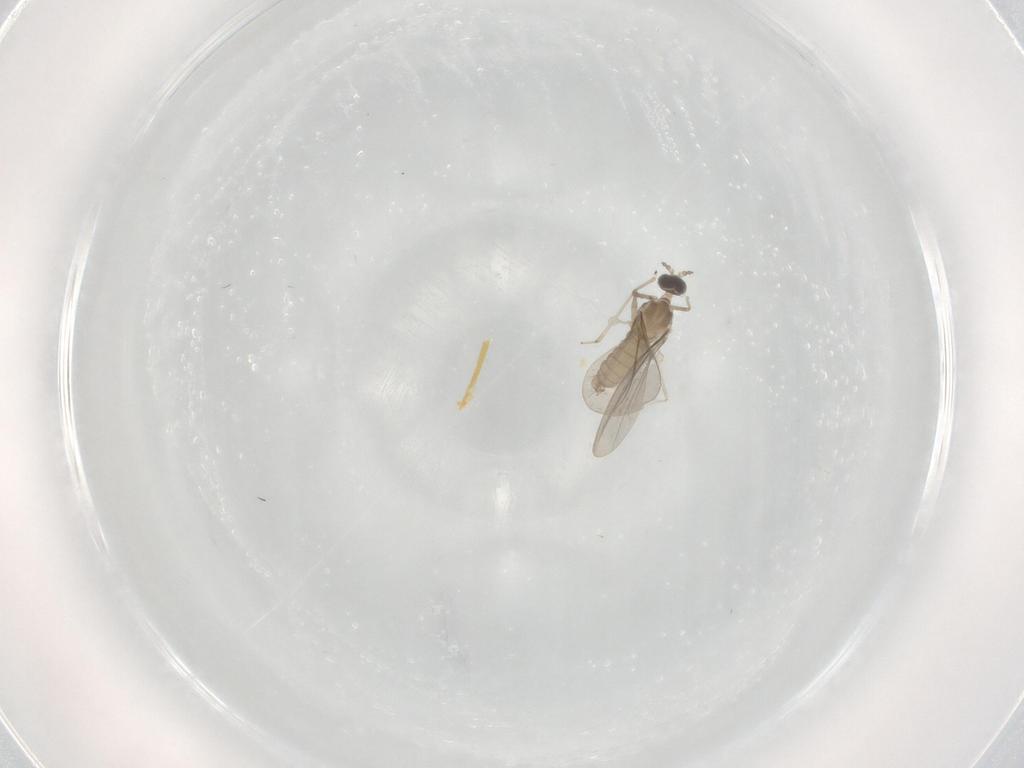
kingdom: Animalia
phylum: Arthropoda
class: Insecta
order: Diptera
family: Cecidomyiidae
